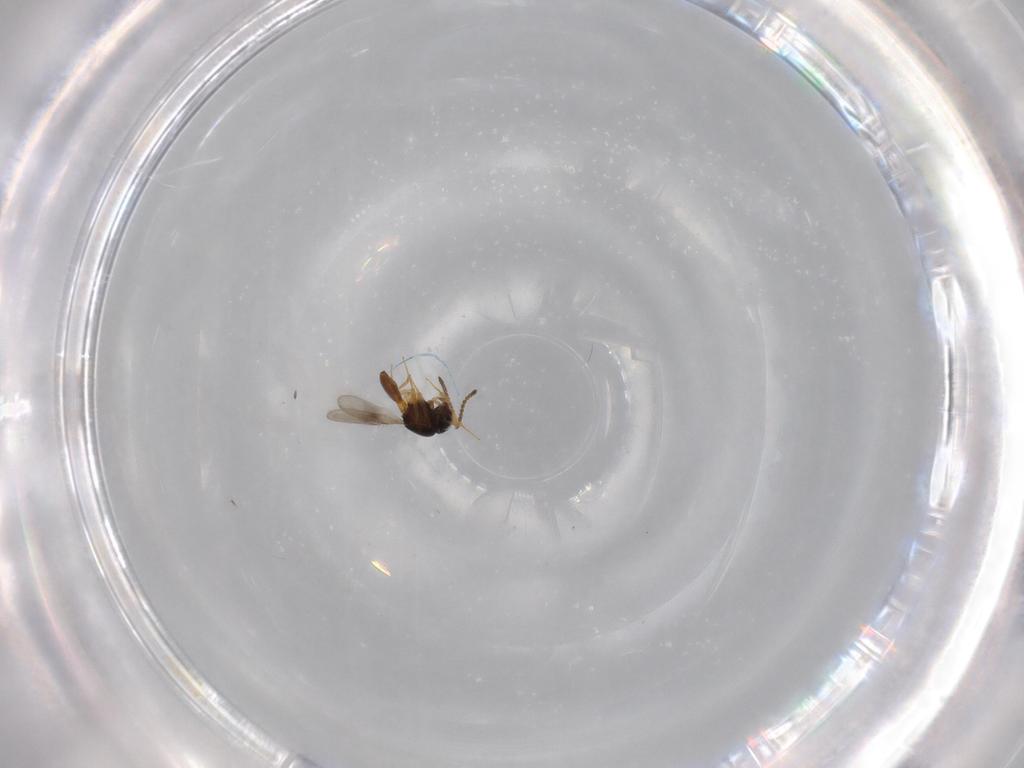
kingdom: Animalia
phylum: Arthropoda
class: Insecta
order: Hymenoptera
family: Scelionidae
